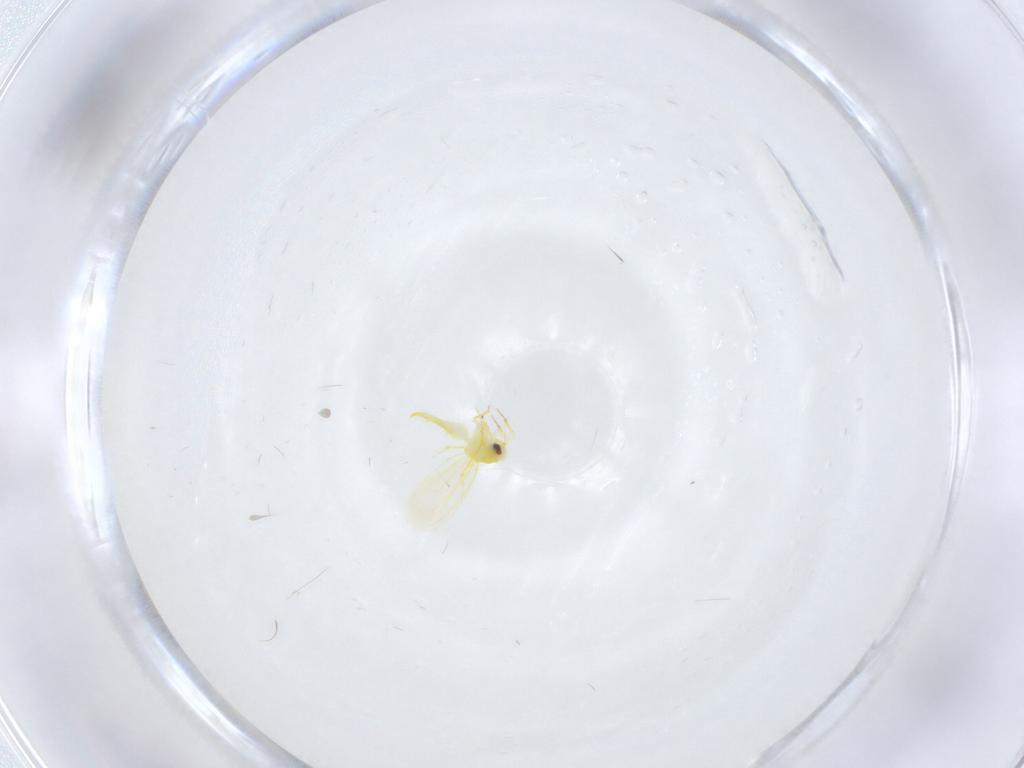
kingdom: Animalia
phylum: Arthropoda
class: Insecta
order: Hemiptera
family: Aleyrodidae
